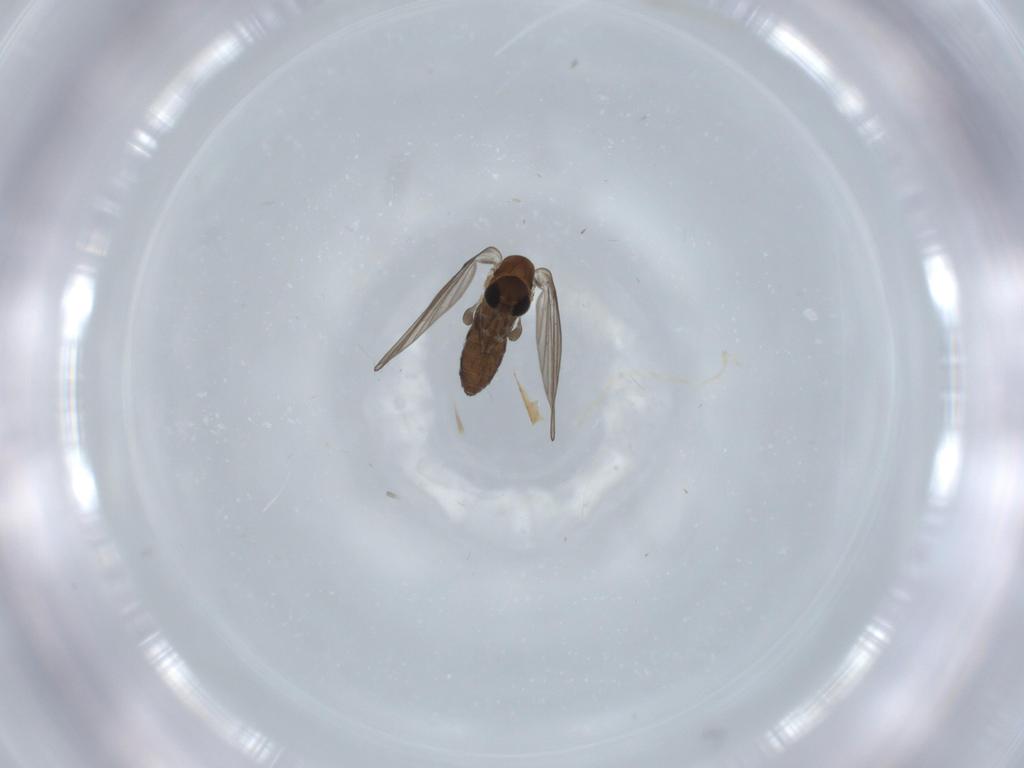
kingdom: Animalia
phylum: Arthropoda
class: Insecta
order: Diptera
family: Psychodidae
